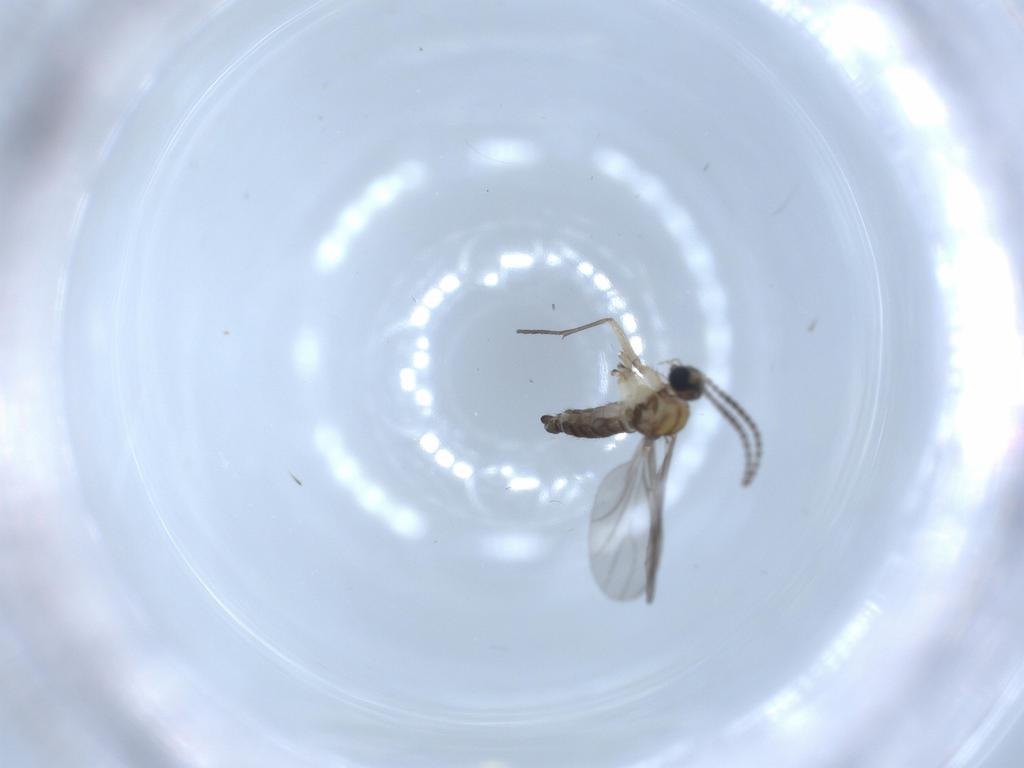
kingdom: Animalia
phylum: Arthropoda
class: Insecta
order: Diptera
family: Sciaridae
